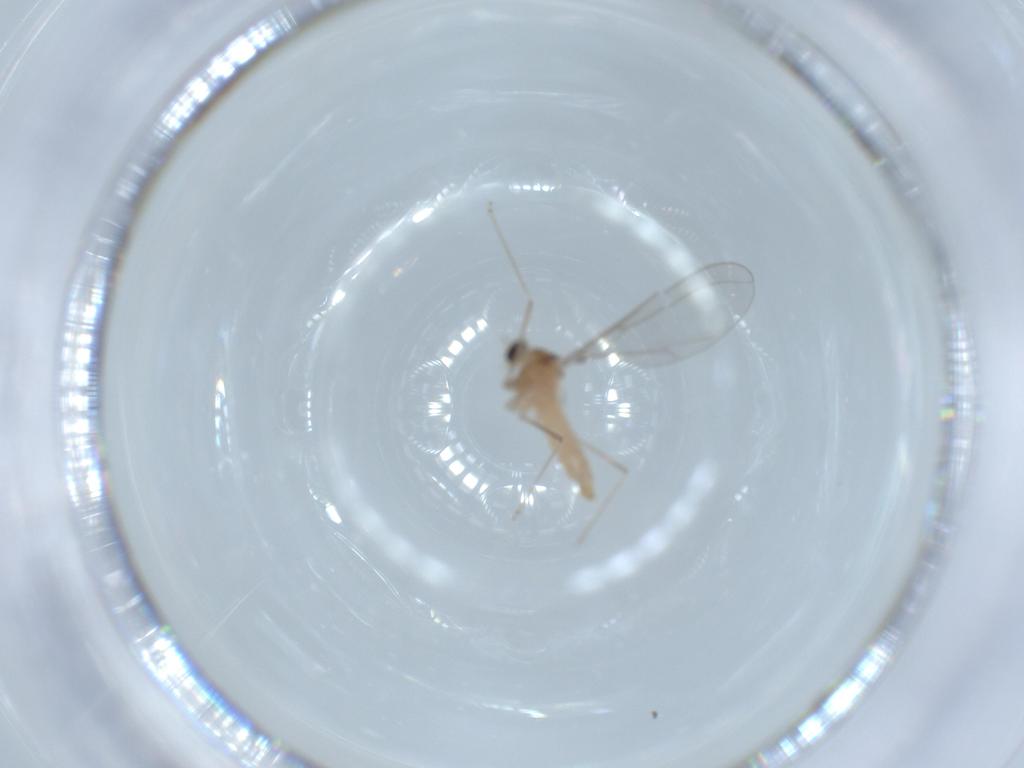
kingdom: Animalia
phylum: Arthropoda
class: Insecta
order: Diptera
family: Cecidomyiidae
